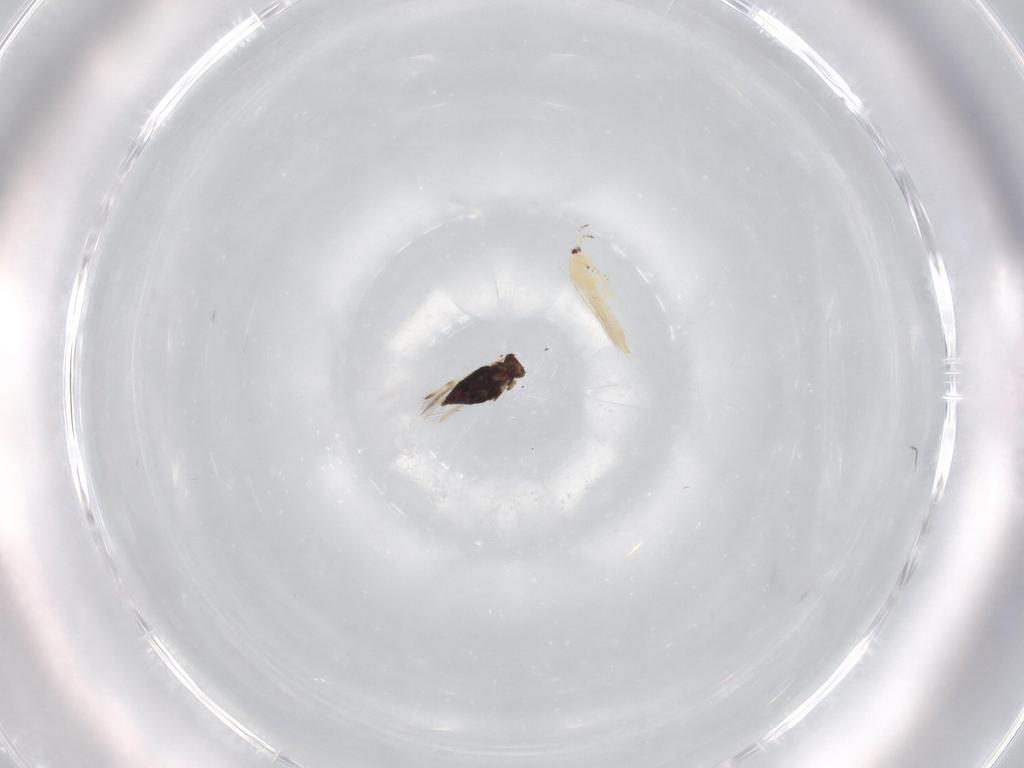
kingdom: Animalia
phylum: Arthropoda
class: Insecta
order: Diptera
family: Tachinidae
